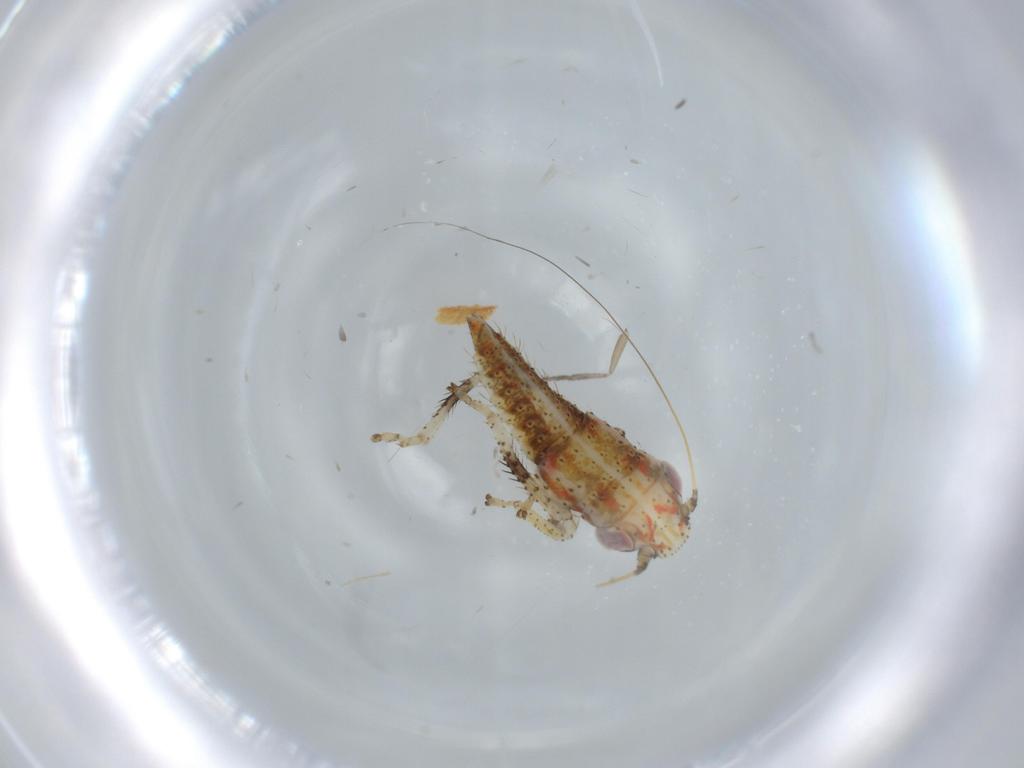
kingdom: Animalia
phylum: Arthropoda
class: Insecta
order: Hemiptera
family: Cicadellidae
